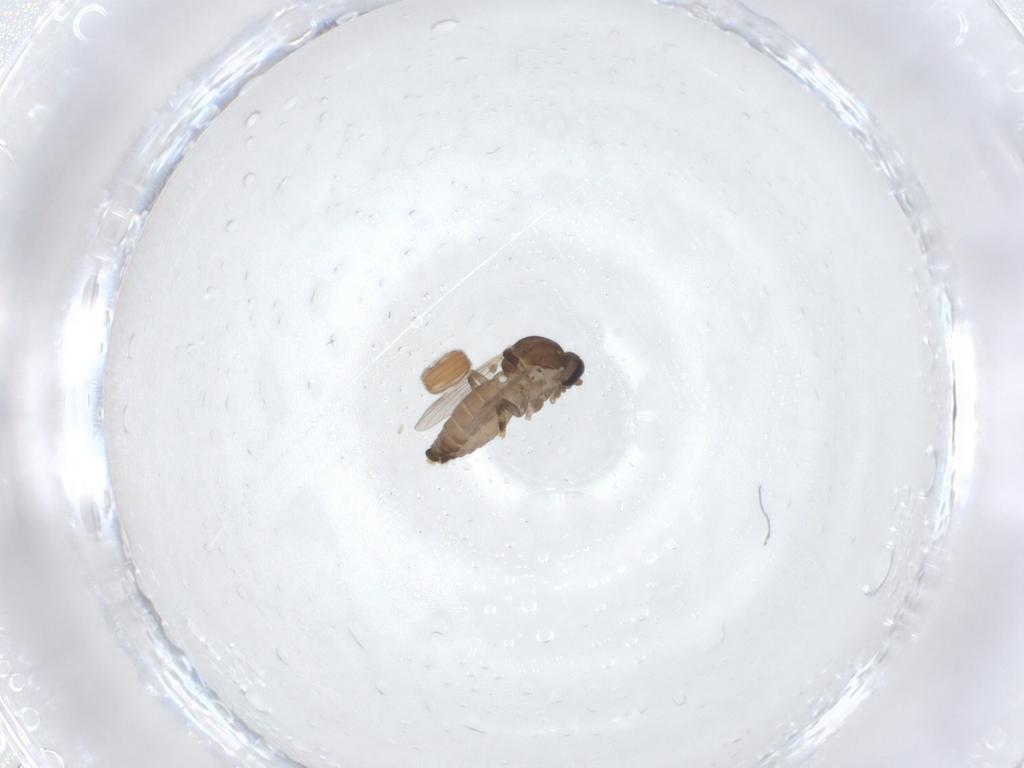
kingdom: Animalia
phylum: Arthropoda
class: Insecta
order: Diptera
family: Ceratopogonidae
